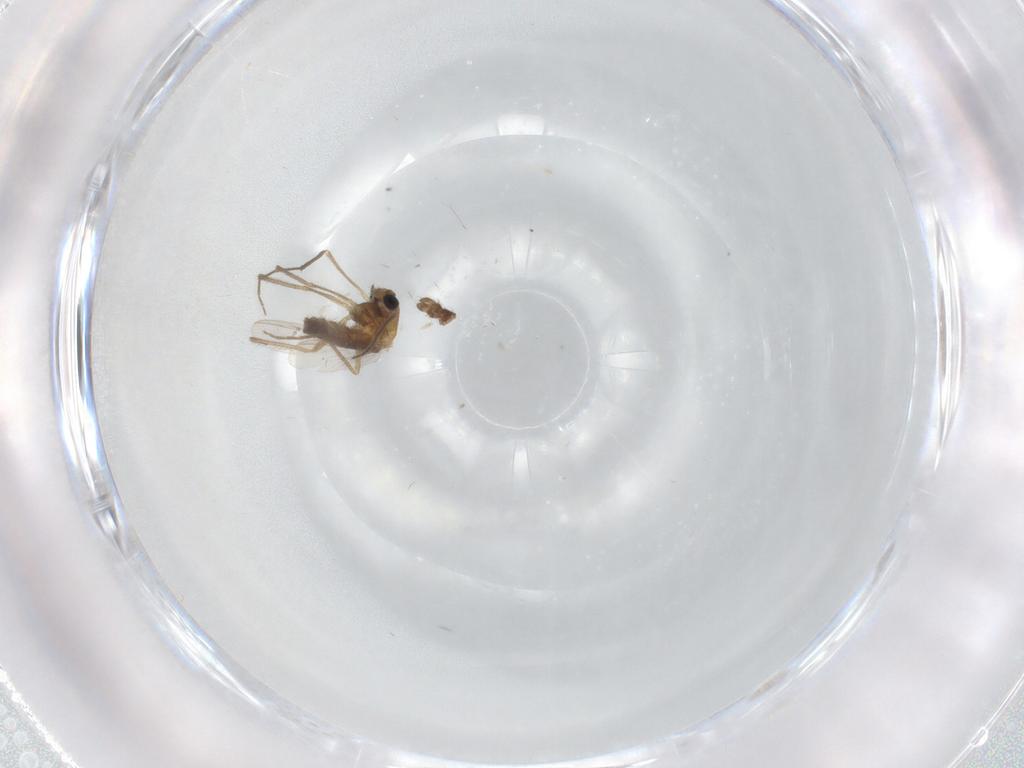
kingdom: Animalia
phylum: Arthropoda
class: Insecta
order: Diptera
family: Chironomidae
